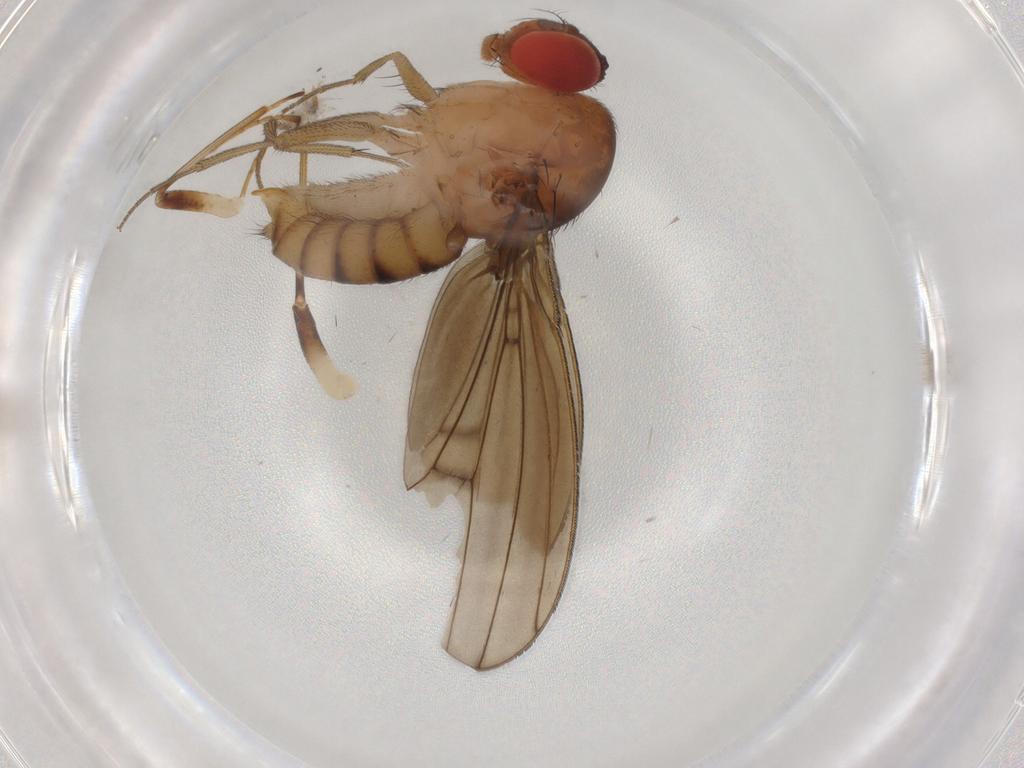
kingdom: Animalia
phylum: Arthropoda
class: Insecta
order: Diptera
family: Drosophilidae
